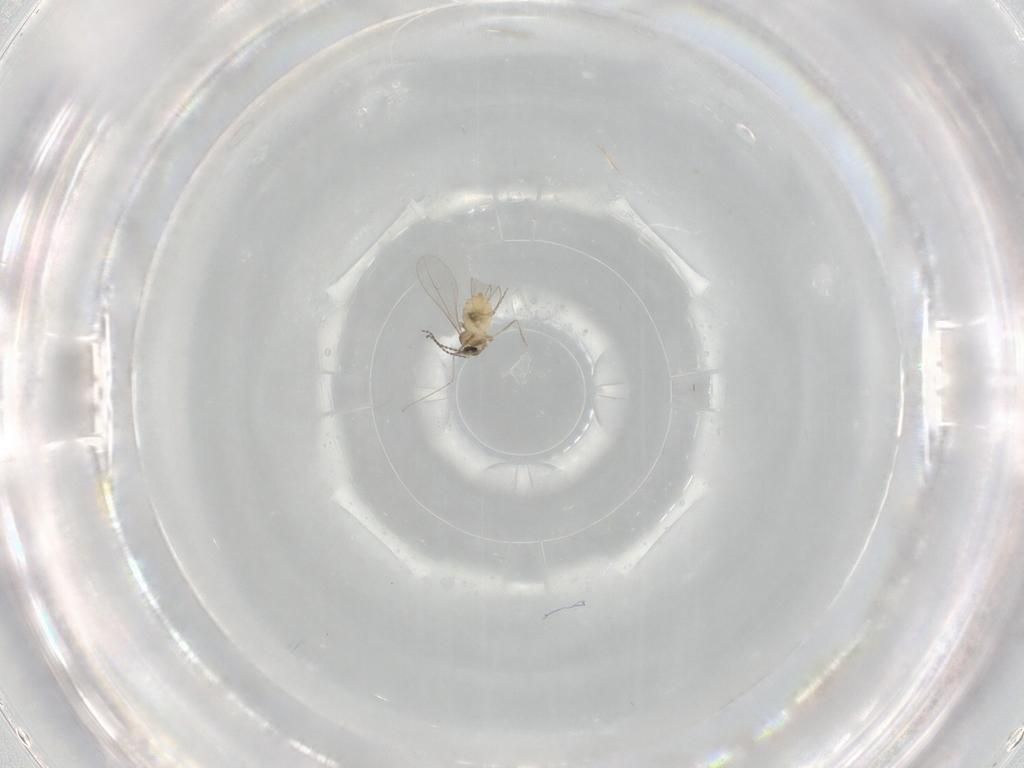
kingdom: Animalia
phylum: Arthropoda
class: Insecta
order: Diptera
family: Cecidomyiidae
